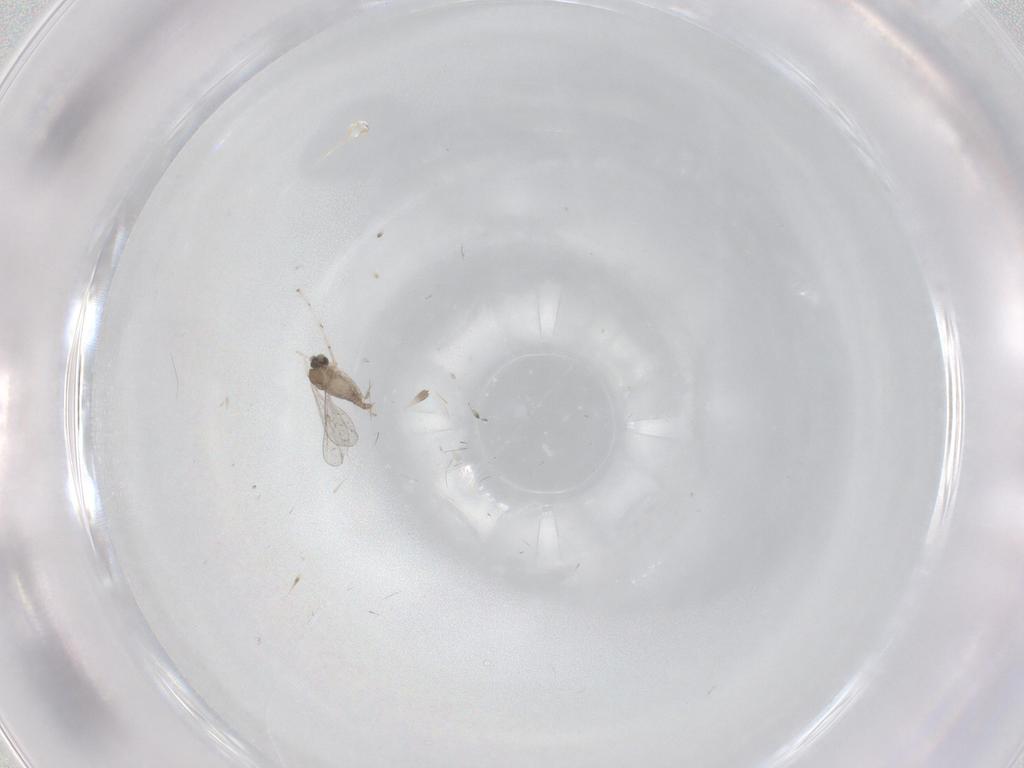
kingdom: Animalia
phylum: Arthropoda
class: Insecta
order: Diptera
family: Cecidomyiidae
